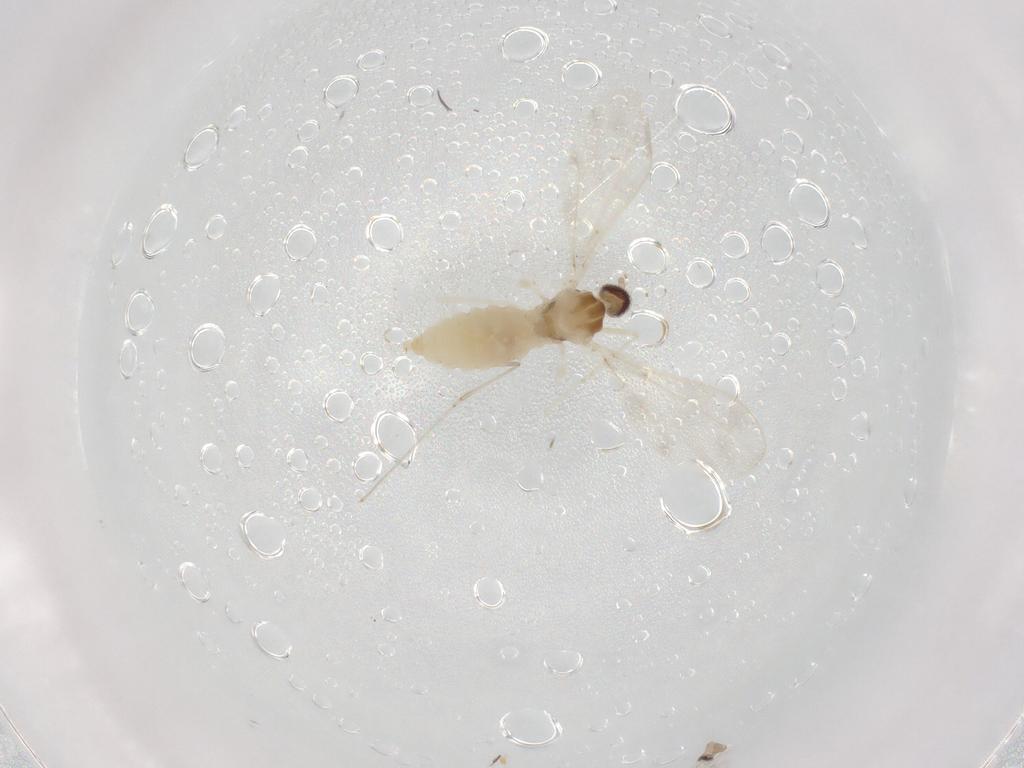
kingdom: Animalia
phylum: Arthropoda
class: Insecta
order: Diptera
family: Cecidomyiidae
